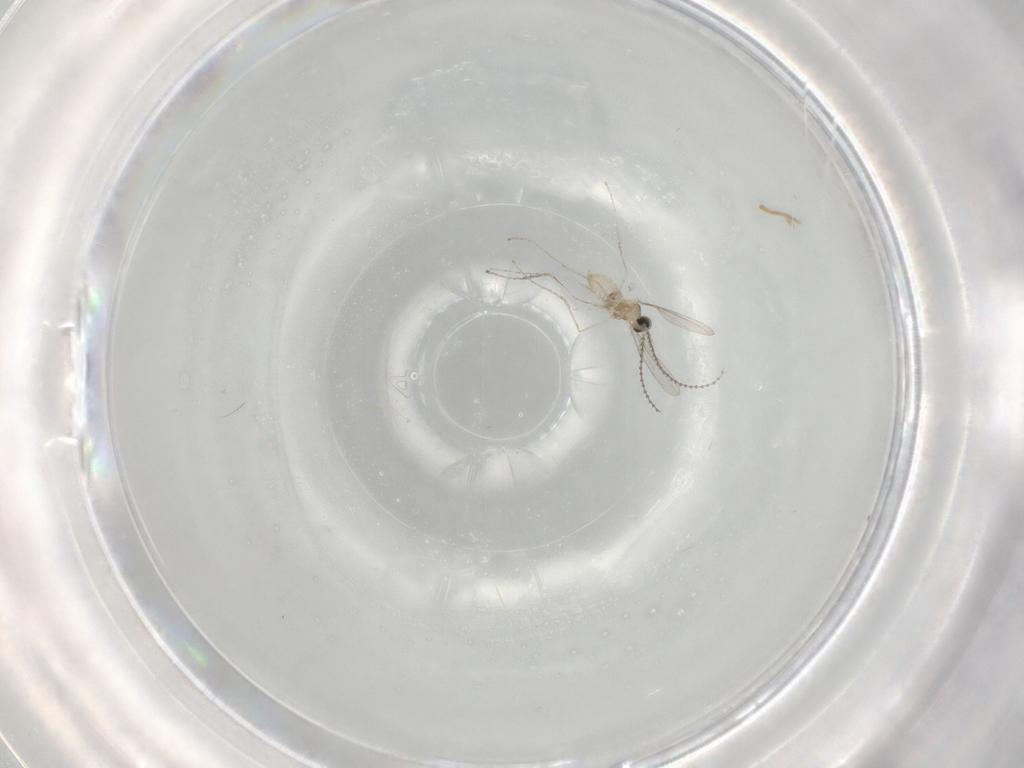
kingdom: Animalia
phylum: Arthropoda
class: Insecta
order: Diptera
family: Cecidomyiidae
